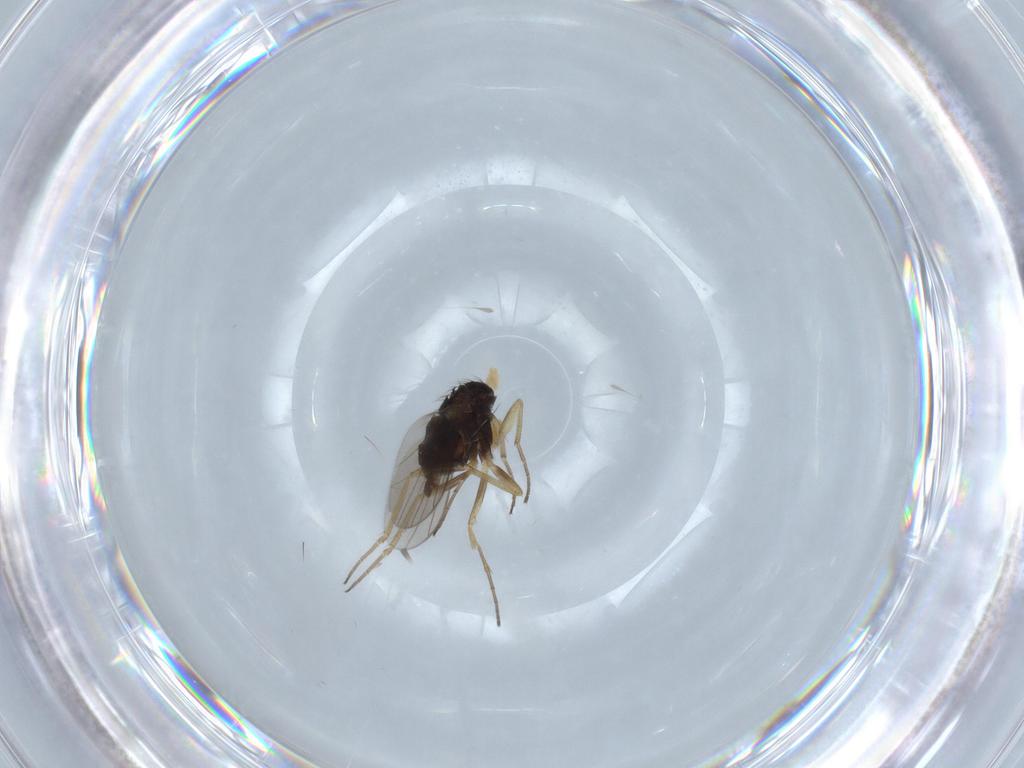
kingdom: Animalia
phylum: Arthropoda
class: Insecta
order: Diptera
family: Dolichopodidae
